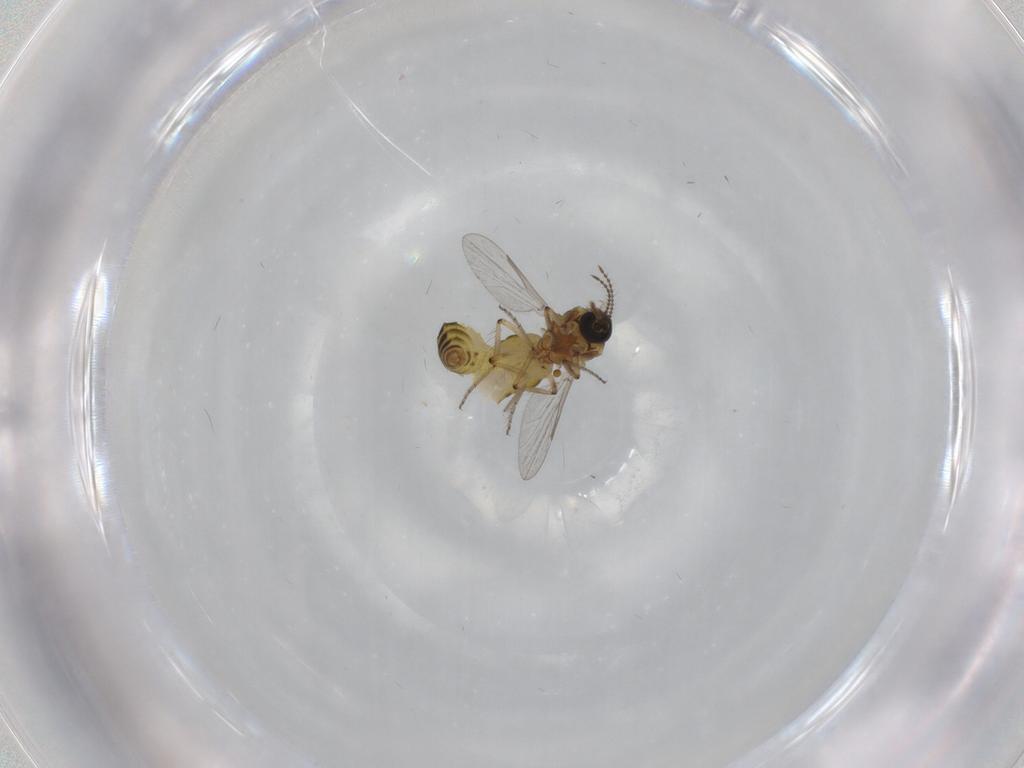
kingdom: Animalia
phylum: Arthropoda
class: Insecta
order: Diptera
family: Ceratopogonidae
